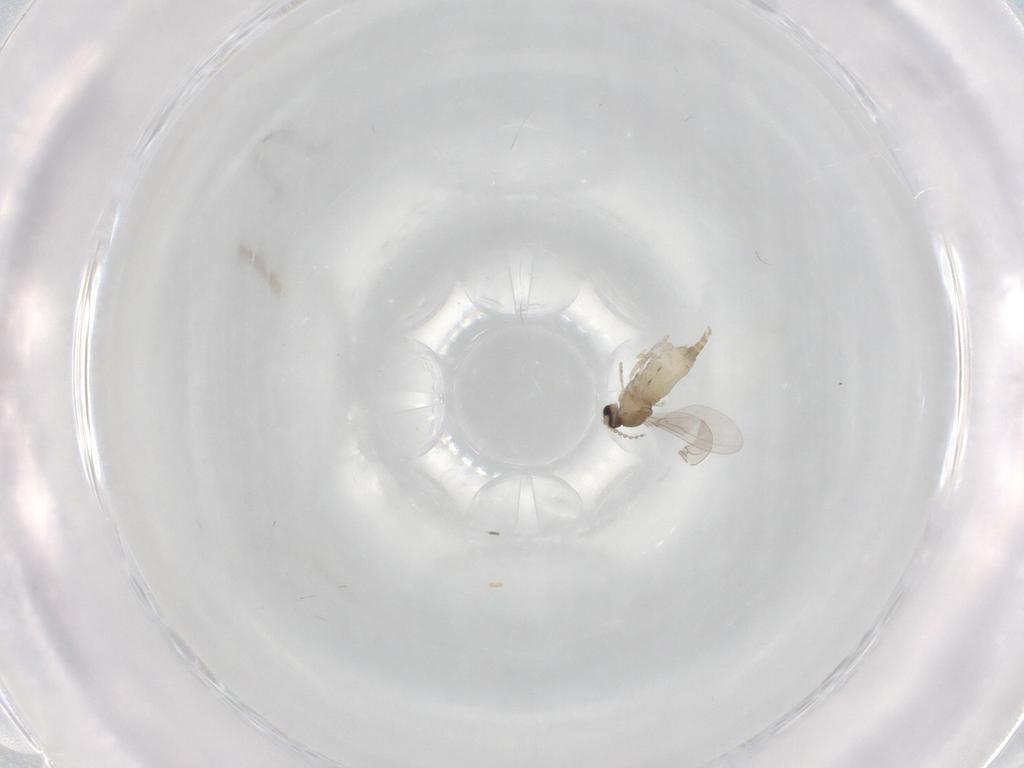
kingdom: Animalia
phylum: Arthropoda
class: Insecta
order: Diptera
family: Cecidomyiidae
